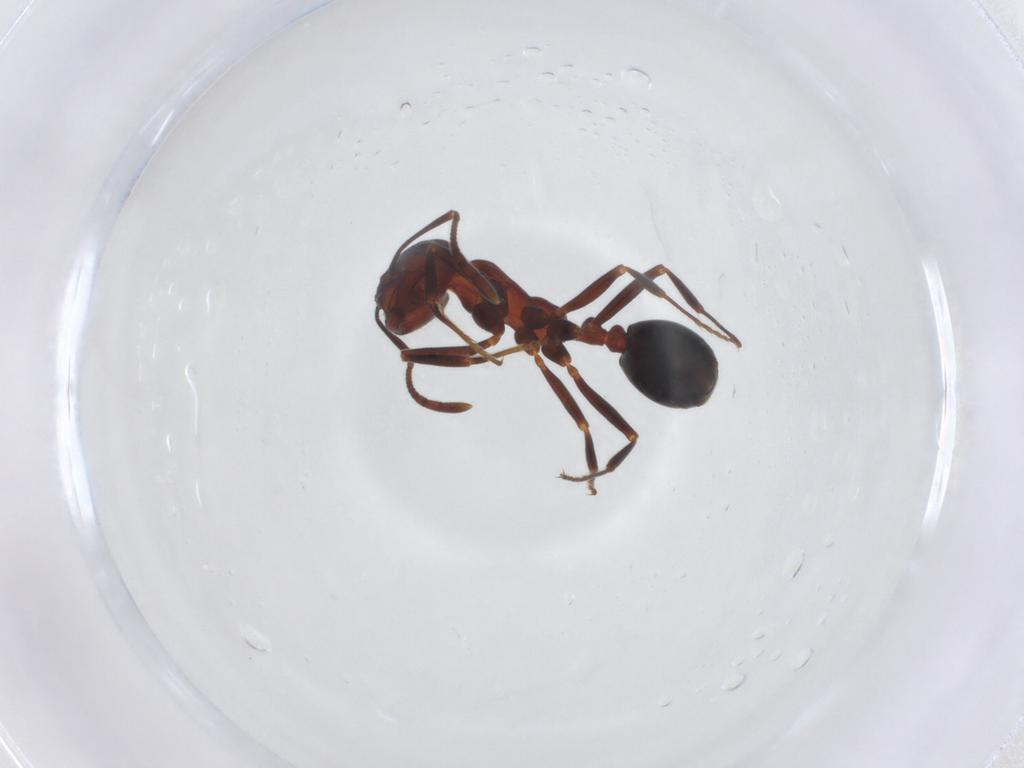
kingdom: Animalia
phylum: Arthropoda
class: Insecta
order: Hymenoptera
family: Formicidae
